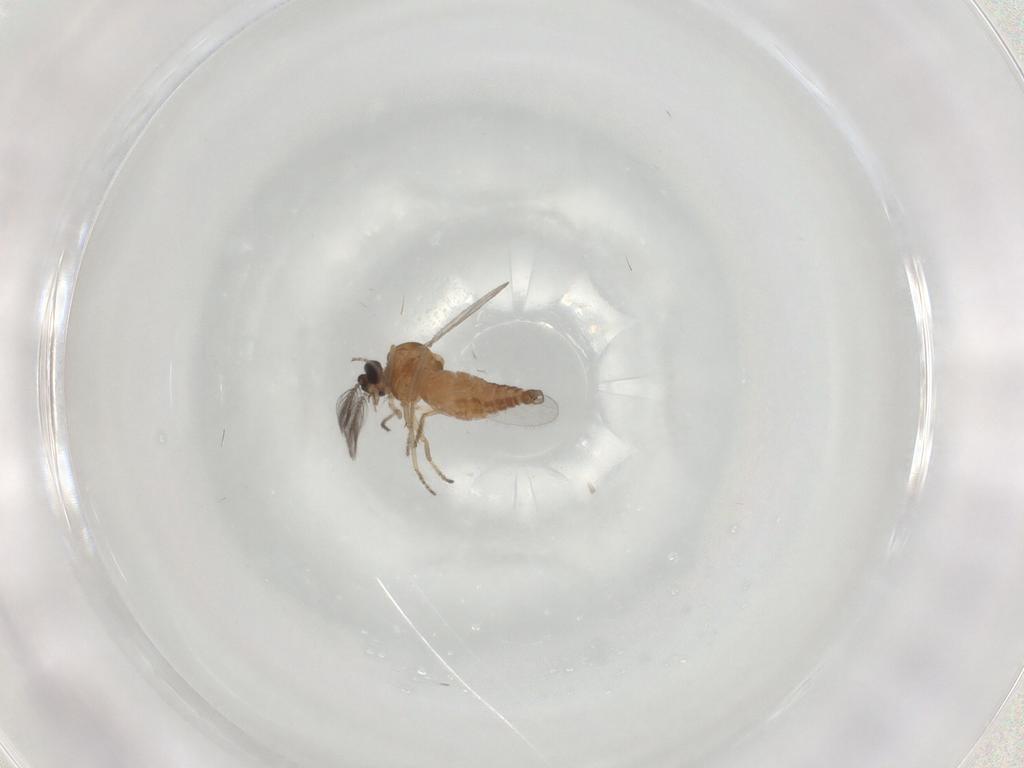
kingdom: Animalia
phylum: Arthropoda
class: Insecta
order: Diptera
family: Ceratopogonidae
